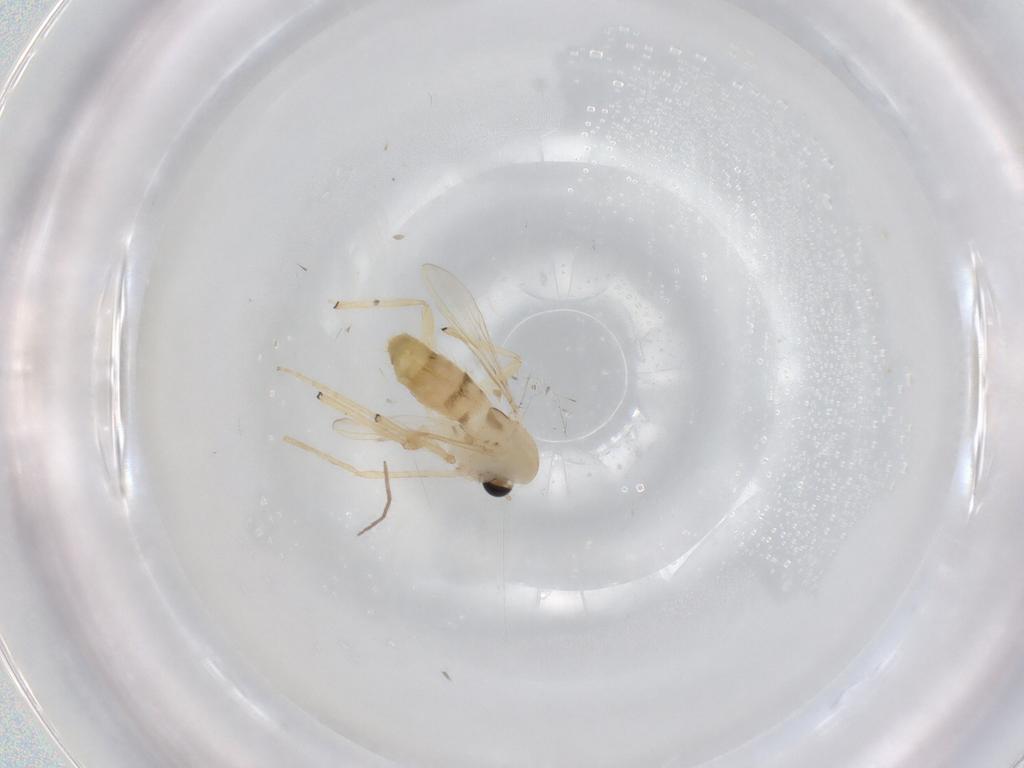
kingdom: Animalia
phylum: Arthropoda
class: Insecta
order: Diptera
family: Chironomidae
